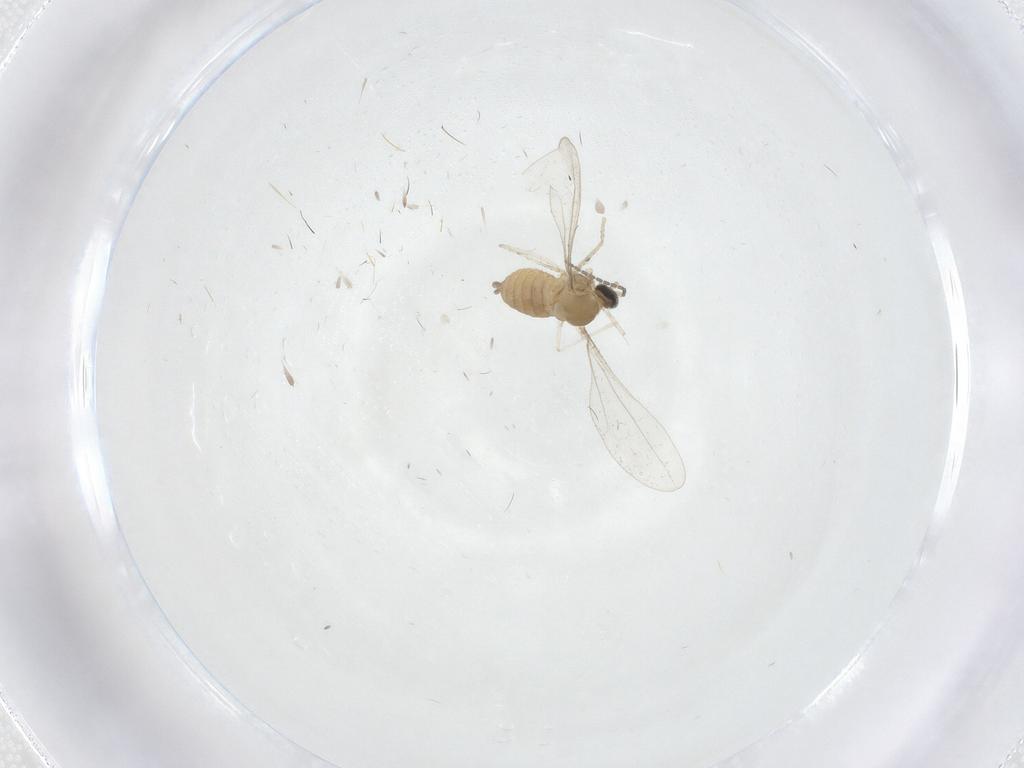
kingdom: Animalia
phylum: Arthropoda
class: Insecta
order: Diptera
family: Cecidomyiidae
